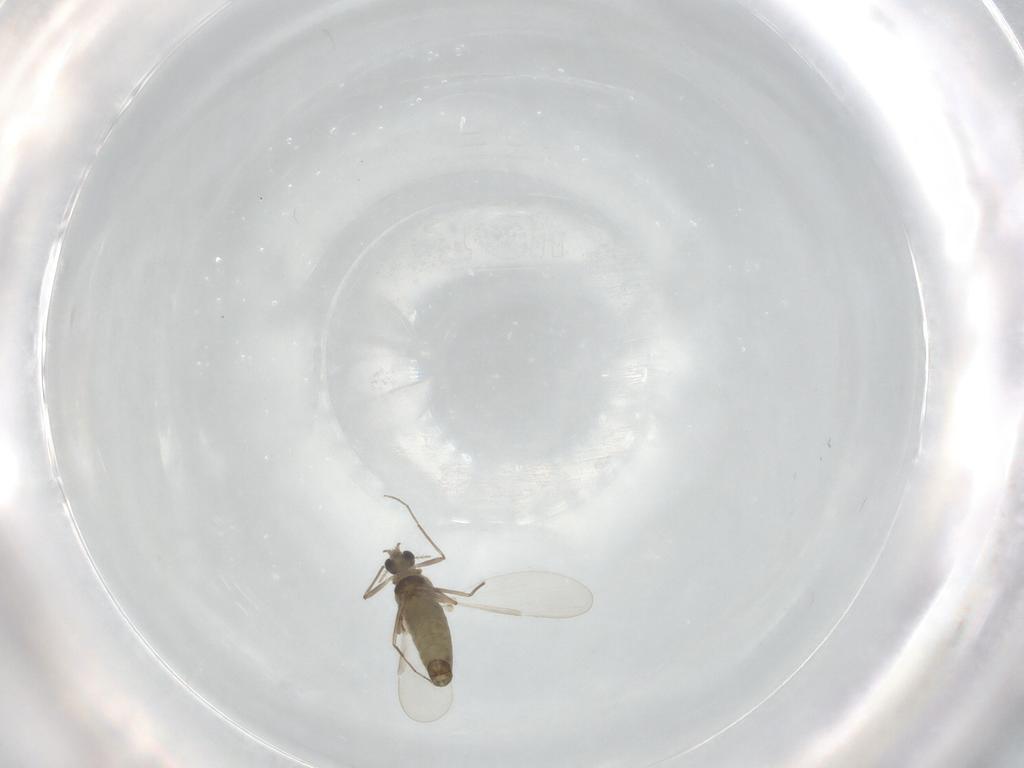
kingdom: Animalia
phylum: Arthropoda
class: Insecta
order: Diptera
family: Chironomidae
